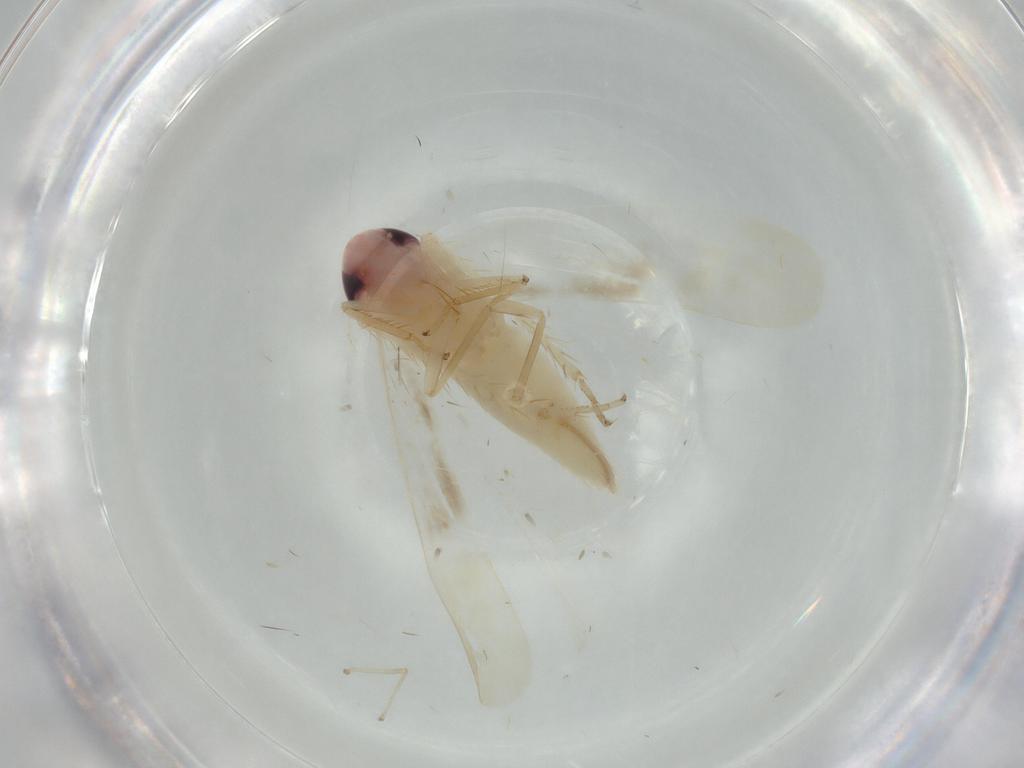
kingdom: Animalia
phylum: Arthropoda
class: Insecta
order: Hemiptera
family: Cicadellidae
